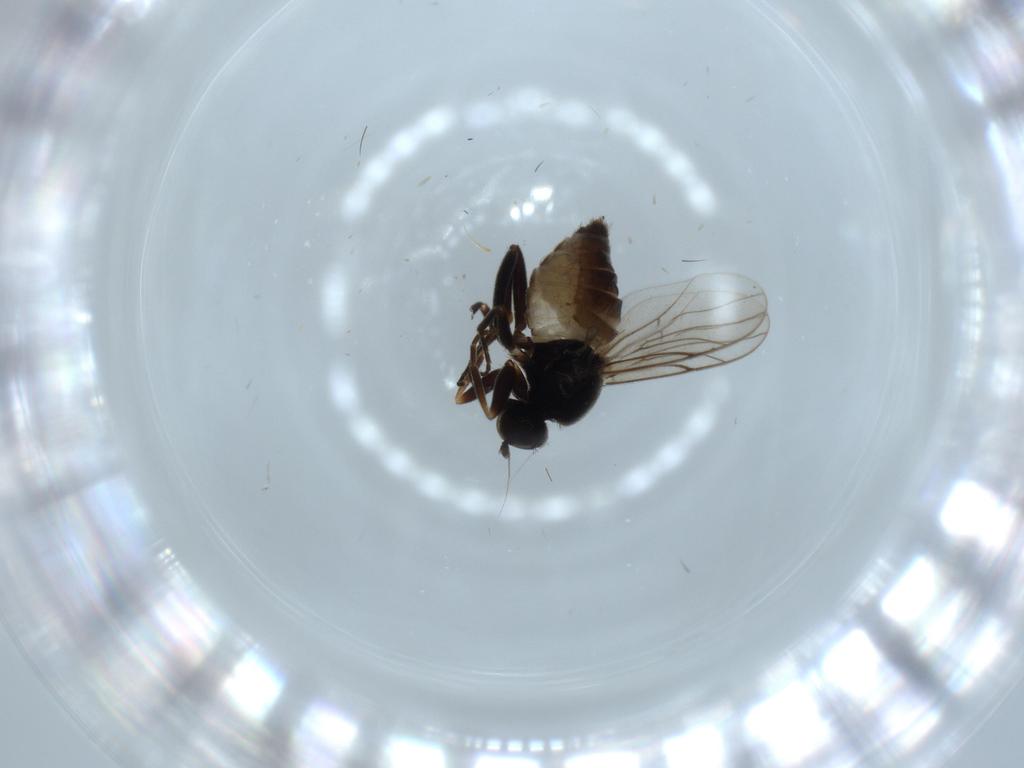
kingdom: Animalia
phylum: Arthropoda
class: Insecta
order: Diptera
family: Hybotidae
